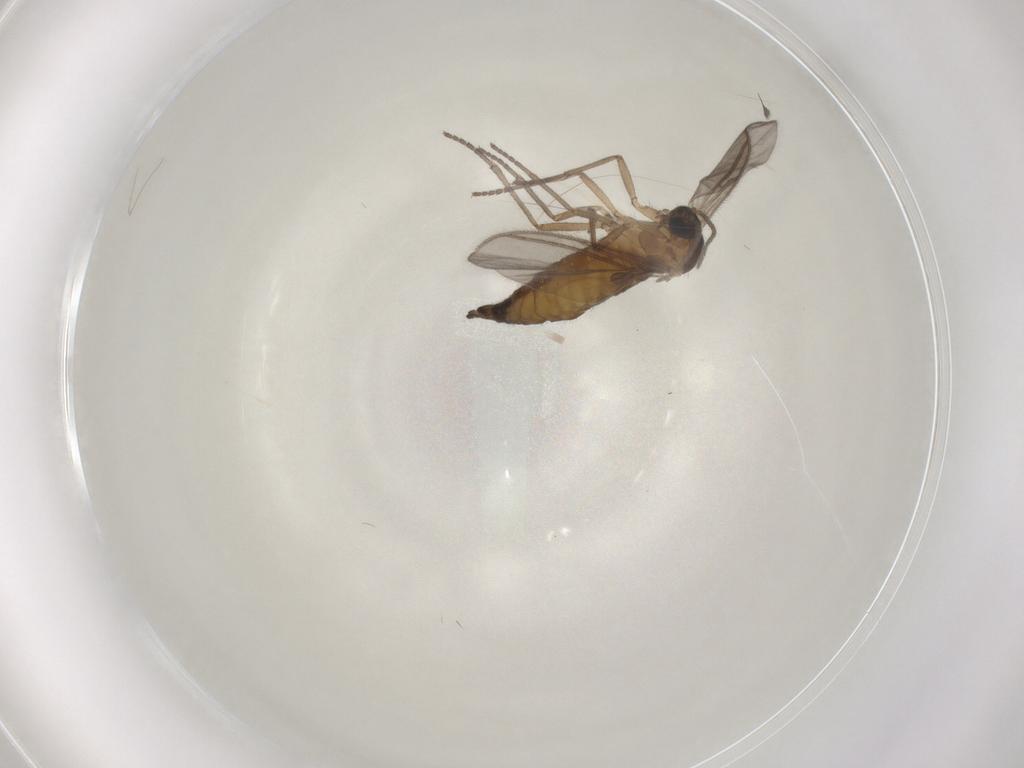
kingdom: Animalia
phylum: Arthropoda
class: Insecta
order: Diptera
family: Sciaridae
